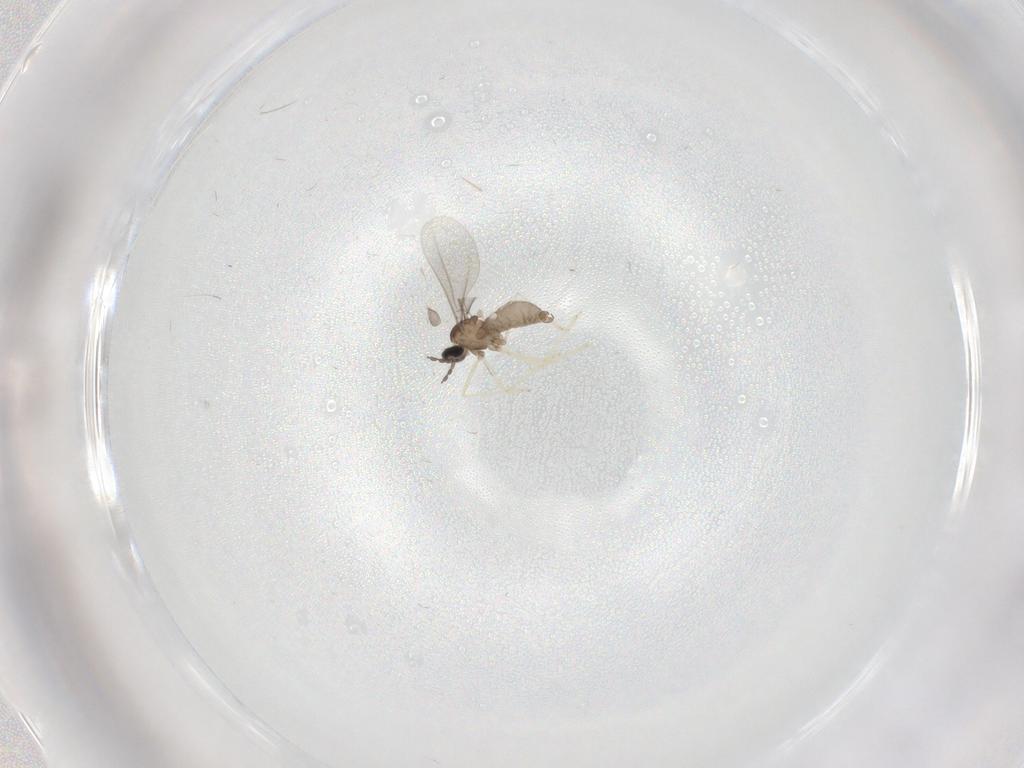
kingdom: Animalia
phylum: Arthropoda
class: Insecta
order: Diptera
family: Cecidomyiidae
